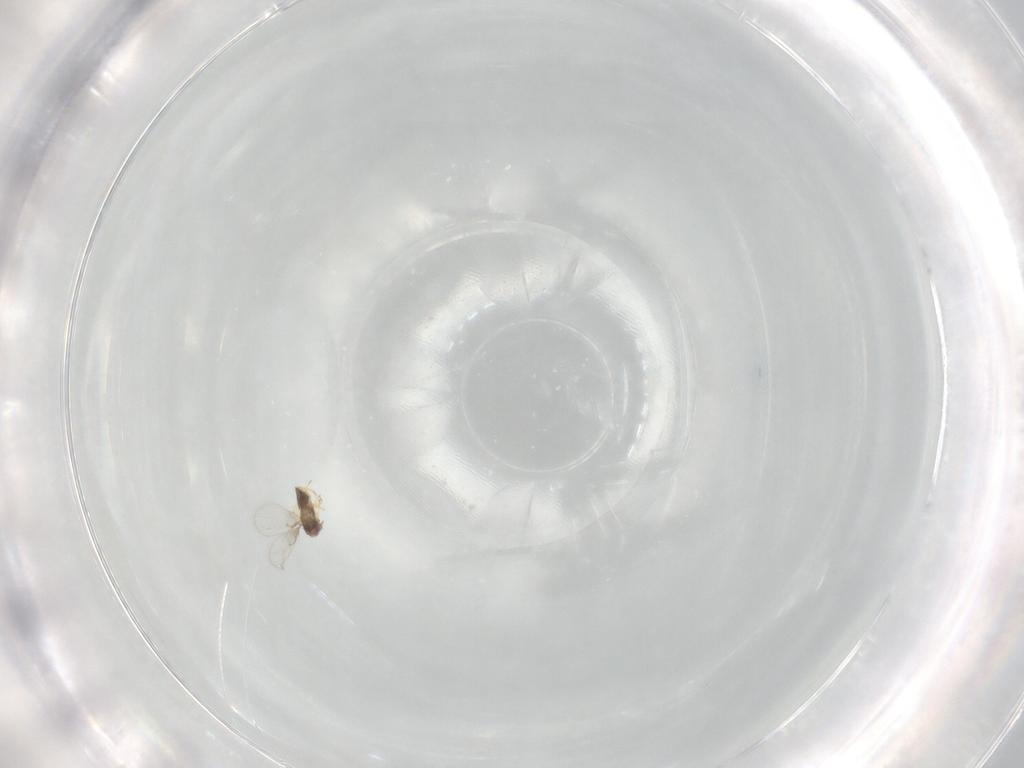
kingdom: Animalia
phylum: Arthropoda
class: Insecta
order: Hymenoptera
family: Trichogrammatidae
